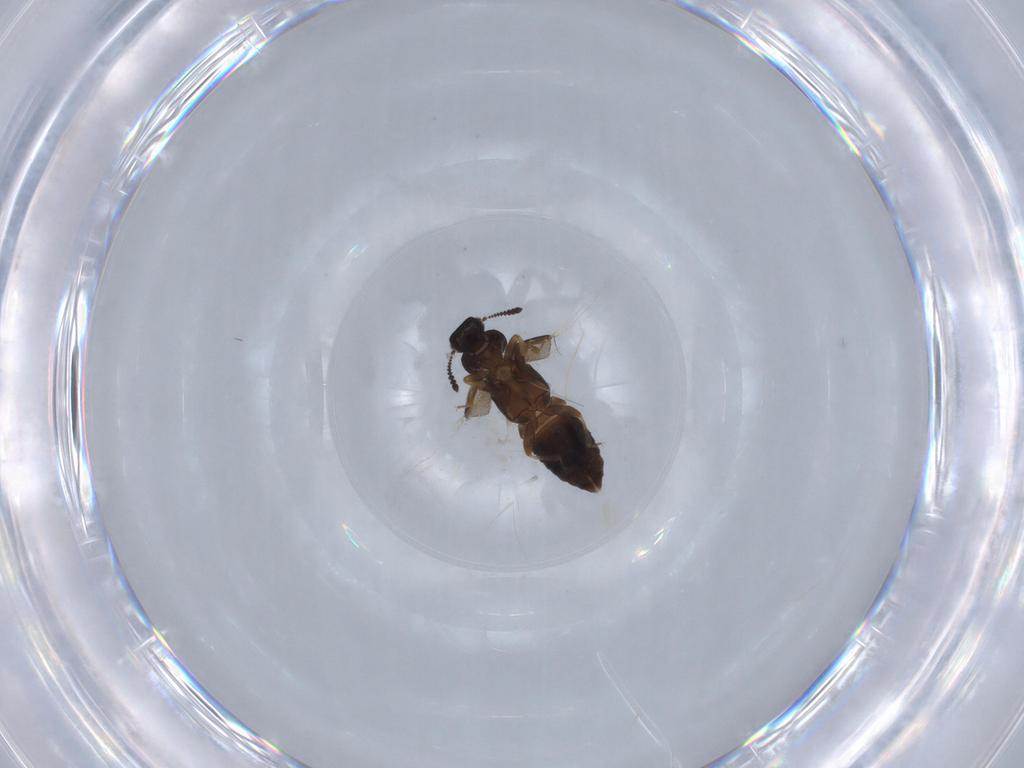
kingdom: Animalia
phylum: Arthropoda
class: Insecta
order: Coleoptera
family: Staphylinidae
